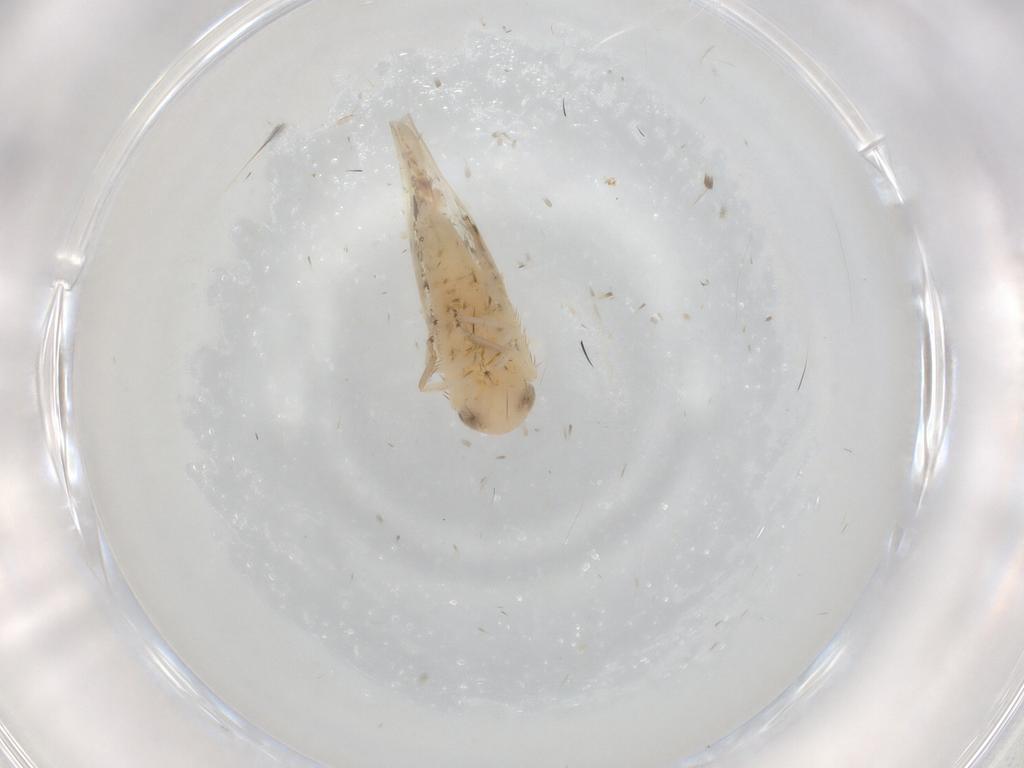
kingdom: Animalia
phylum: Arthropoda
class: Insecta
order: Hemiptera
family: Cicadellidae
